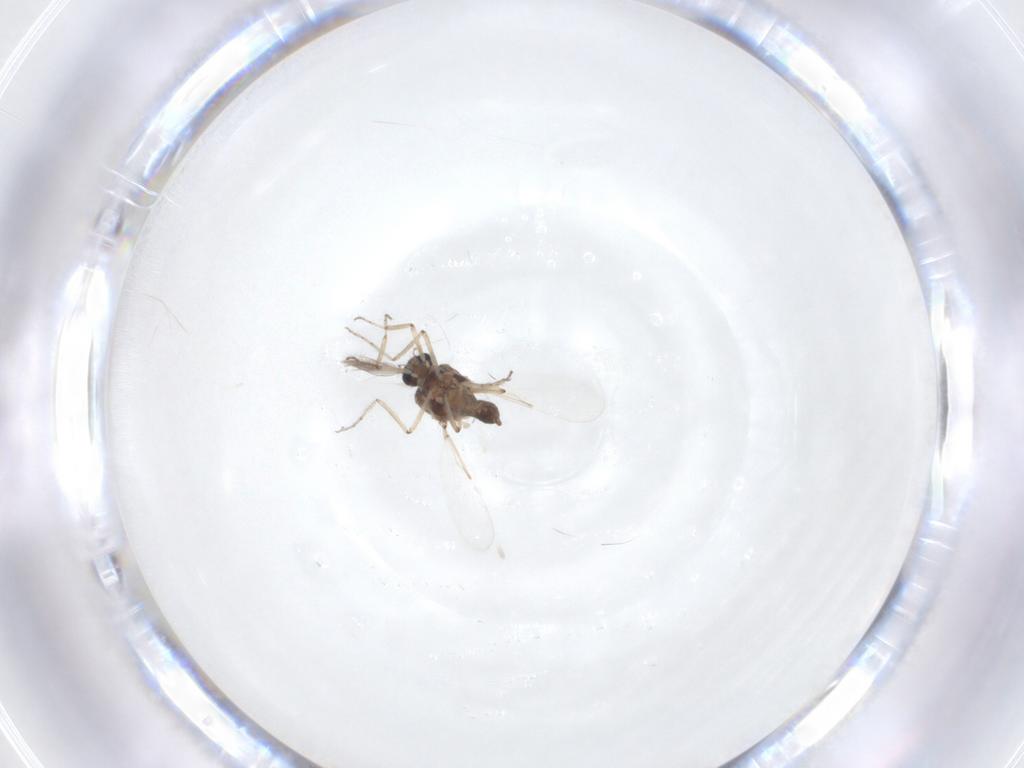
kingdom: Animalia
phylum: Arthropoda
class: Insecta
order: Diptera
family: Ceratopogonidae
